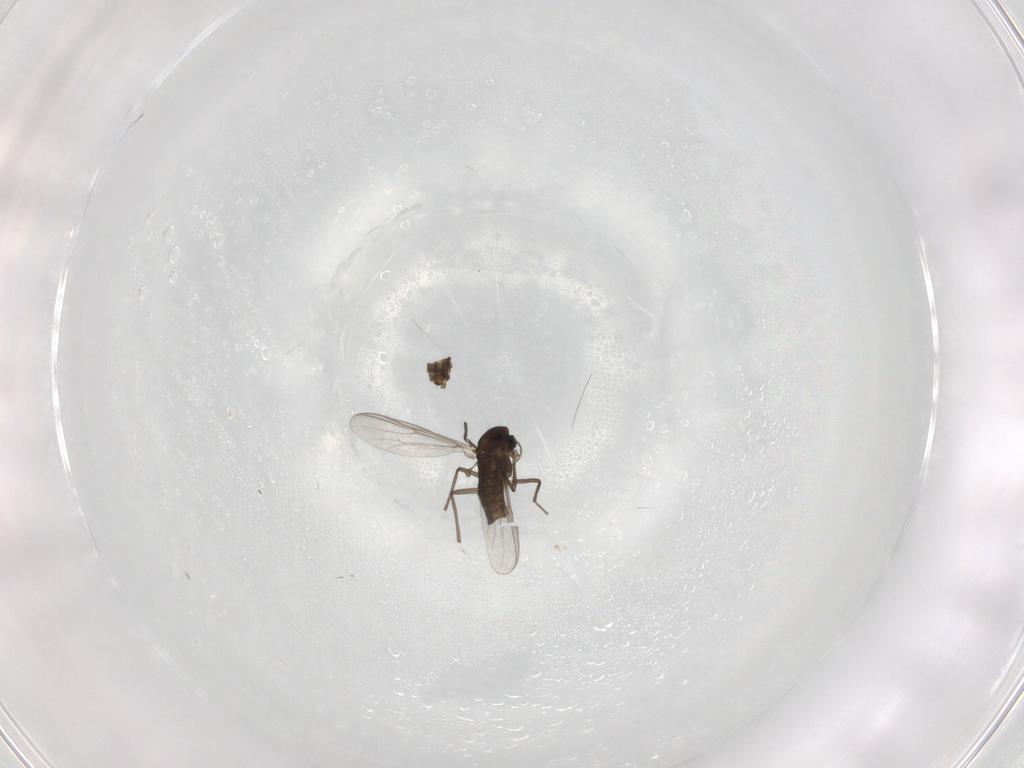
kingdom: Animalia
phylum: Arthropoda
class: Insecta
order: Diptera
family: Chironomidae
